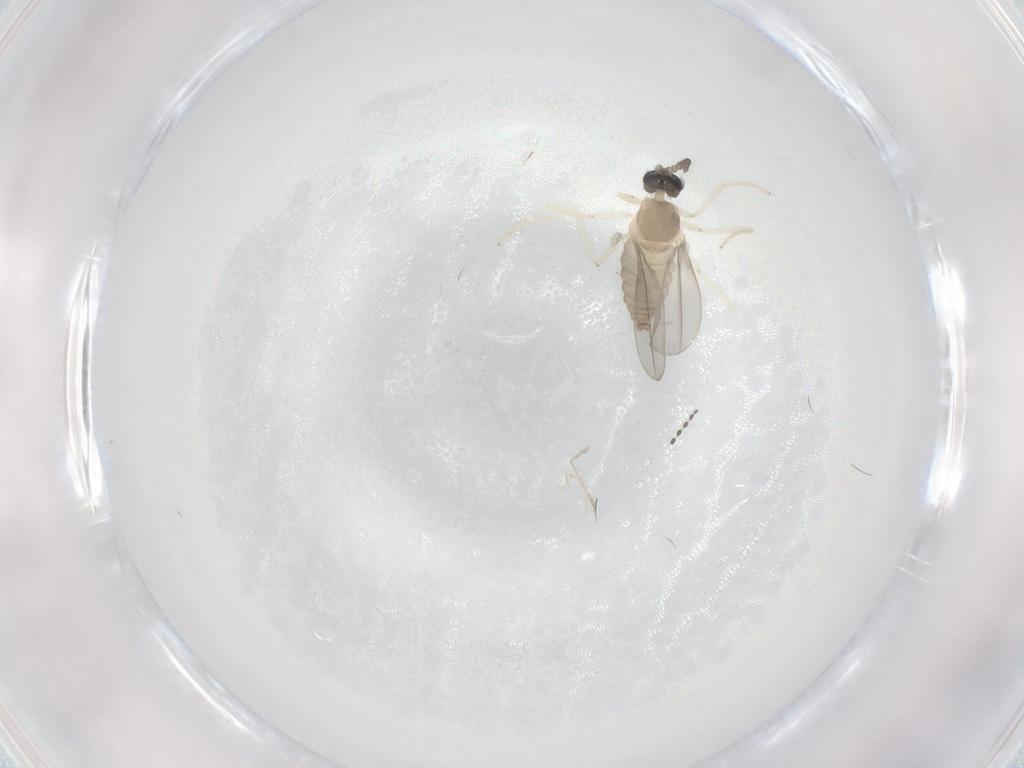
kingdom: Animalia
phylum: Arthropoda
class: Insecta
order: Diptera
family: Cecidomyiidae
